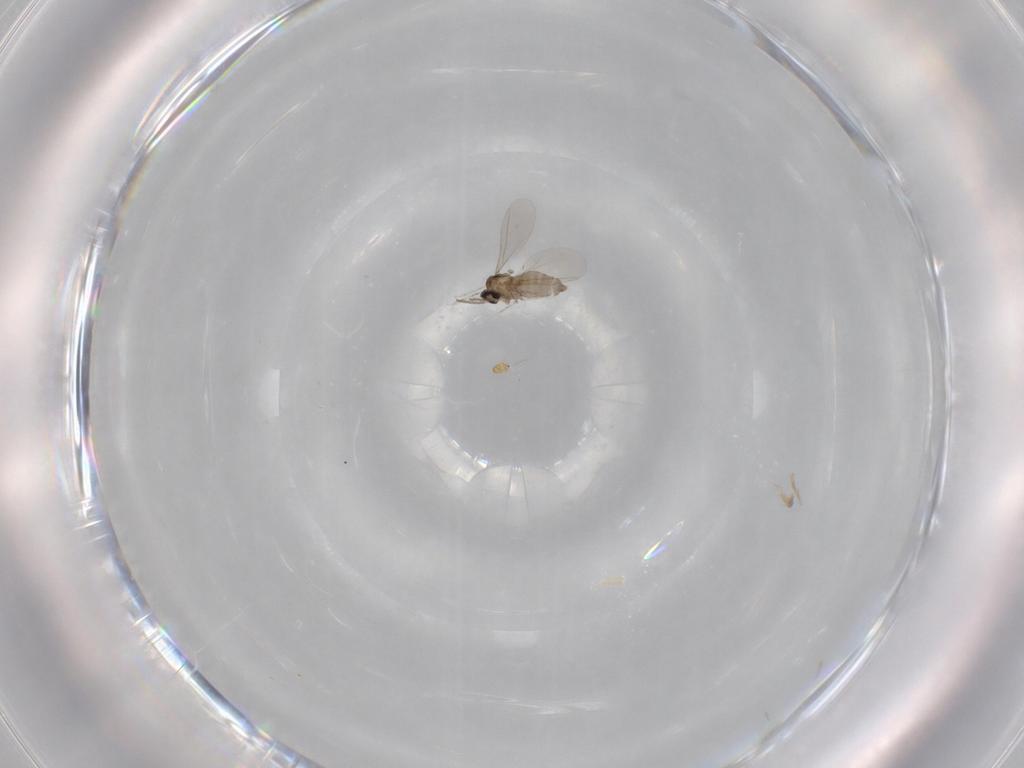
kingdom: Animalia
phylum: Arthropoda
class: Insecta
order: Diptera
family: Cecidomyiidae
